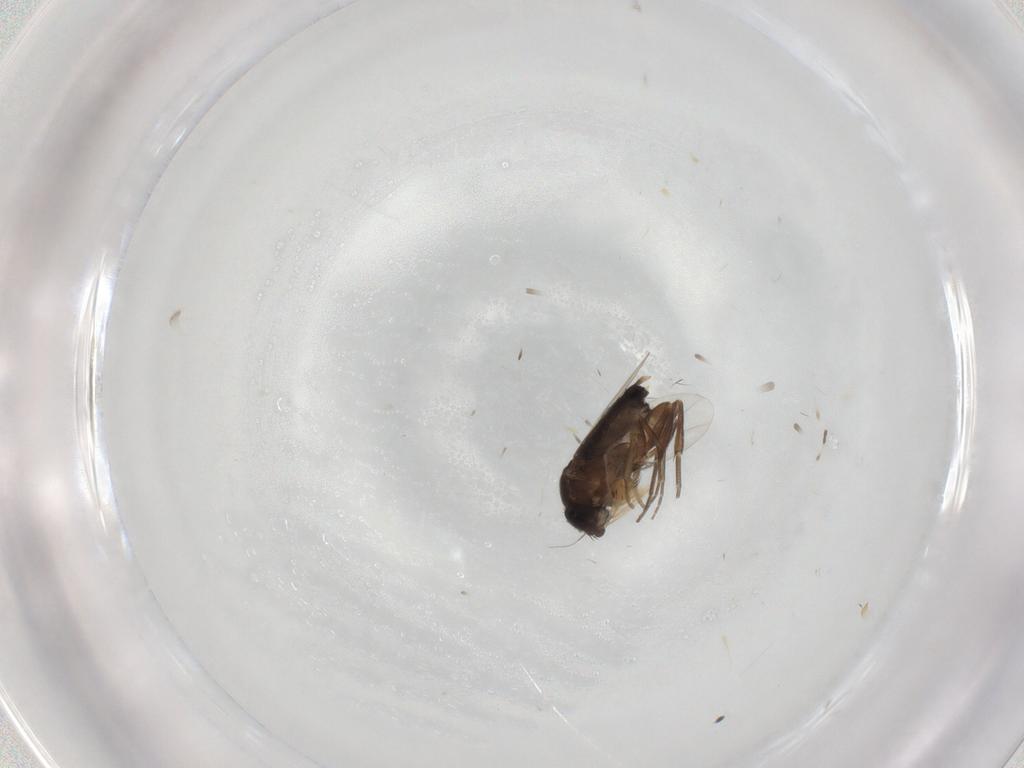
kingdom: Animalia
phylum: Arthropoda
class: Insecta
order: Diptera
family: Phoridae
